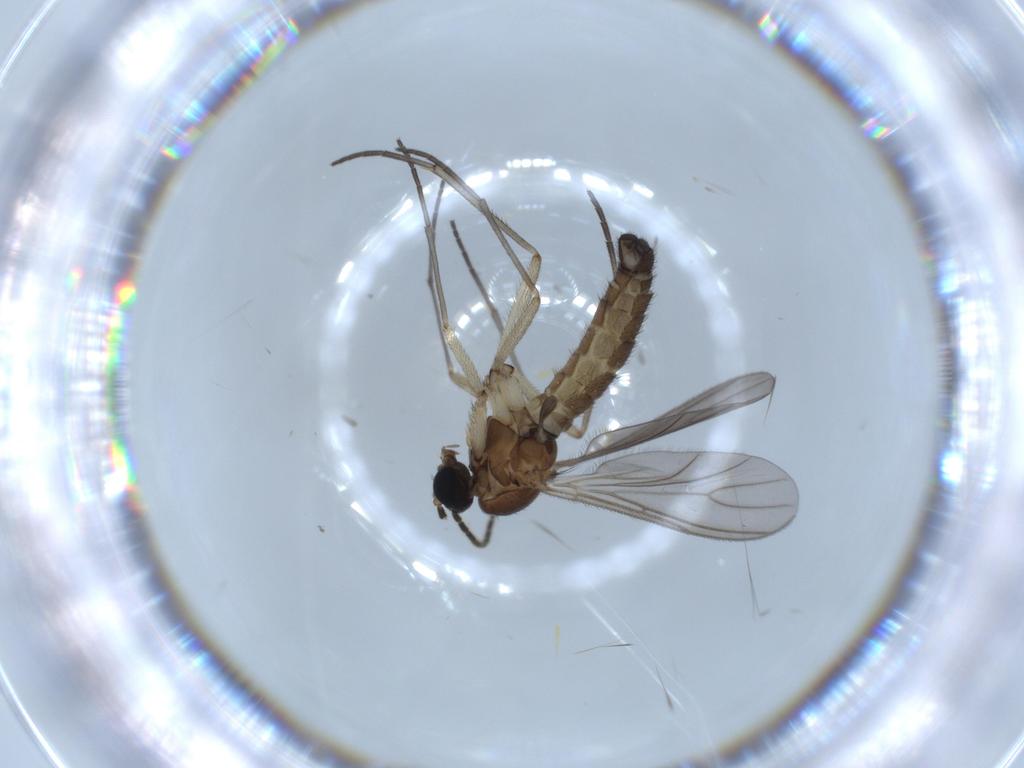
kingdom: Animalia
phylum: Arthropoda
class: Insecta
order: Diptera
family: Sciaridae
